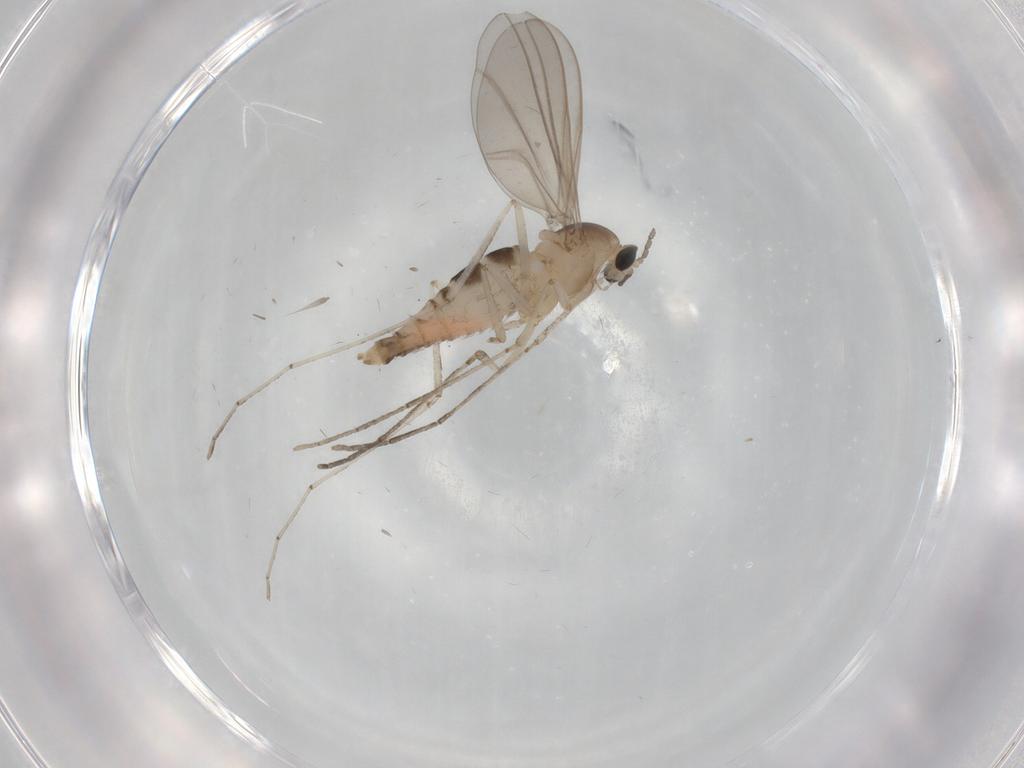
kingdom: Animalia
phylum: Arthropoda
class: Insecta
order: Diptera
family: Cecidomyiidae
